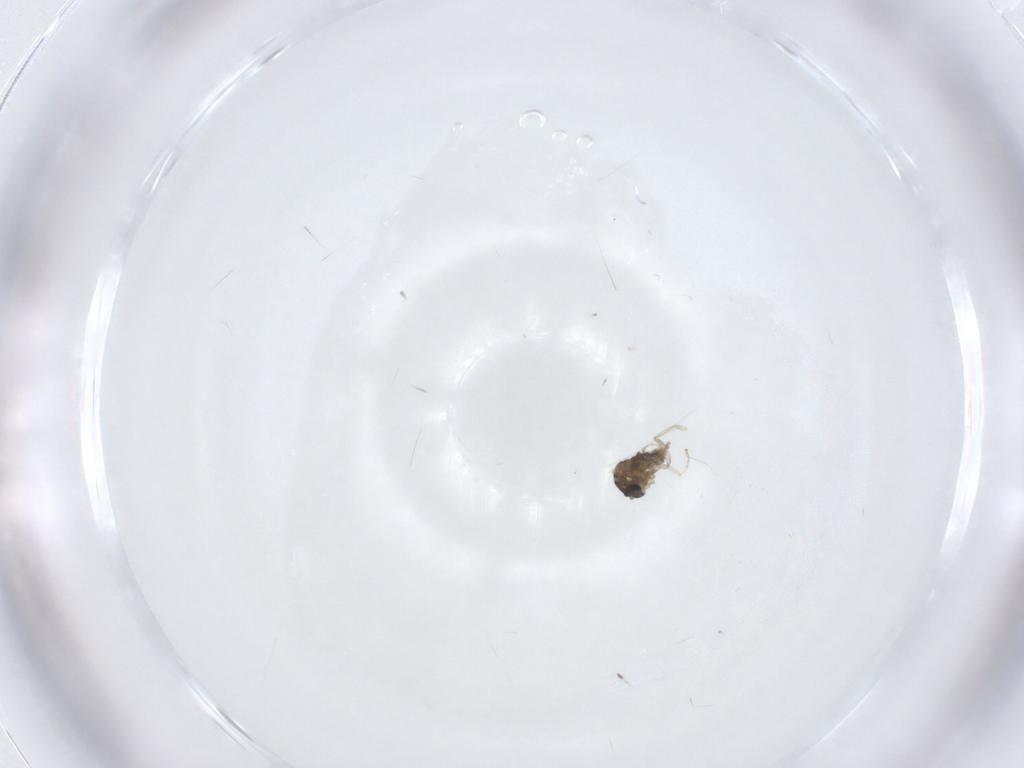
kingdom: Animalia
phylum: Arthropoda
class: Insecta
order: Diptera
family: Cecidomyiidae
